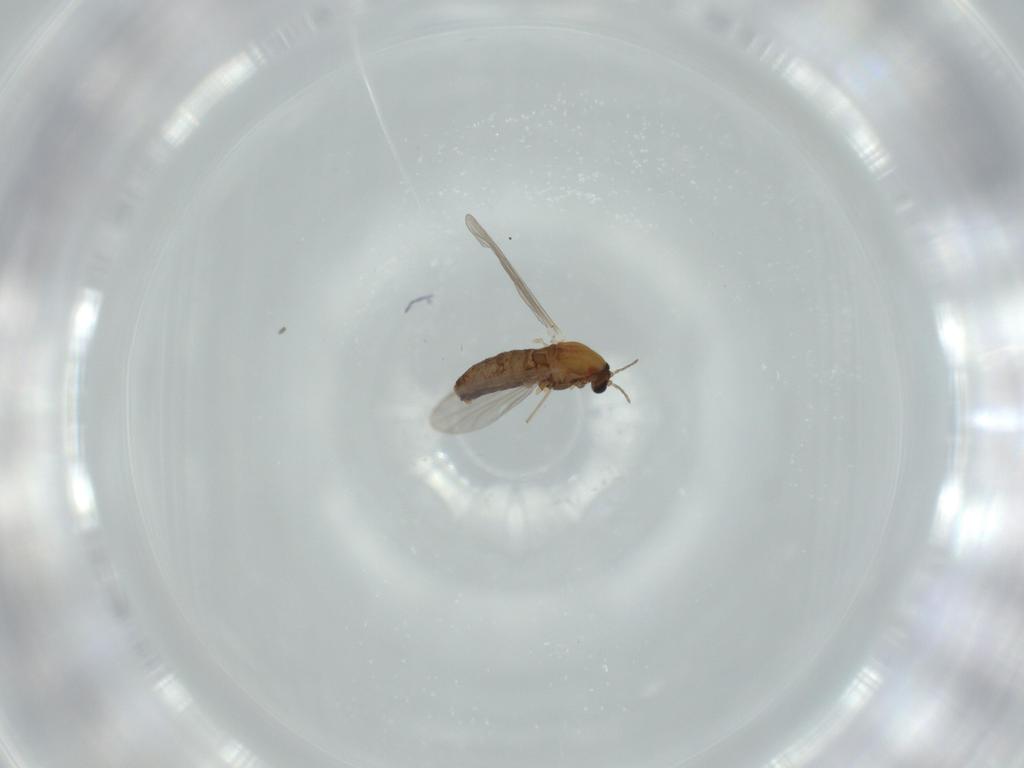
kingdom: Animalia
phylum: Arthropoda
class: Insecta
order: Diptera
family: Chironomidae
